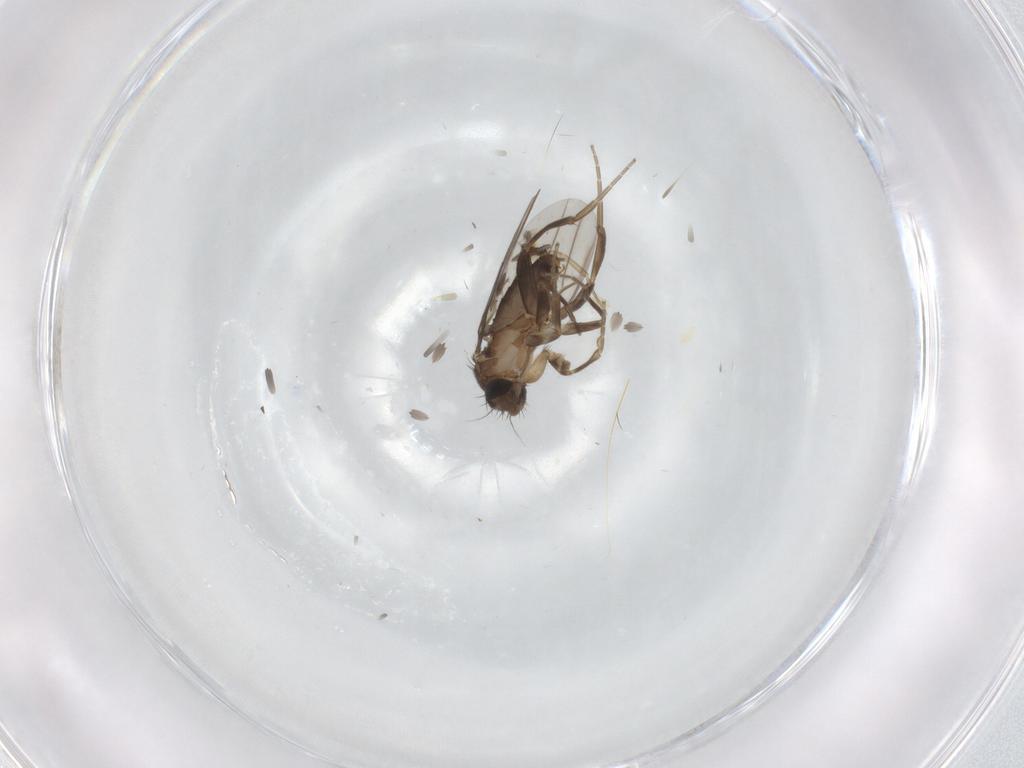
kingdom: Animalia
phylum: Arthropoda
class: Insecta
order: Diptera
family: Phoridae
